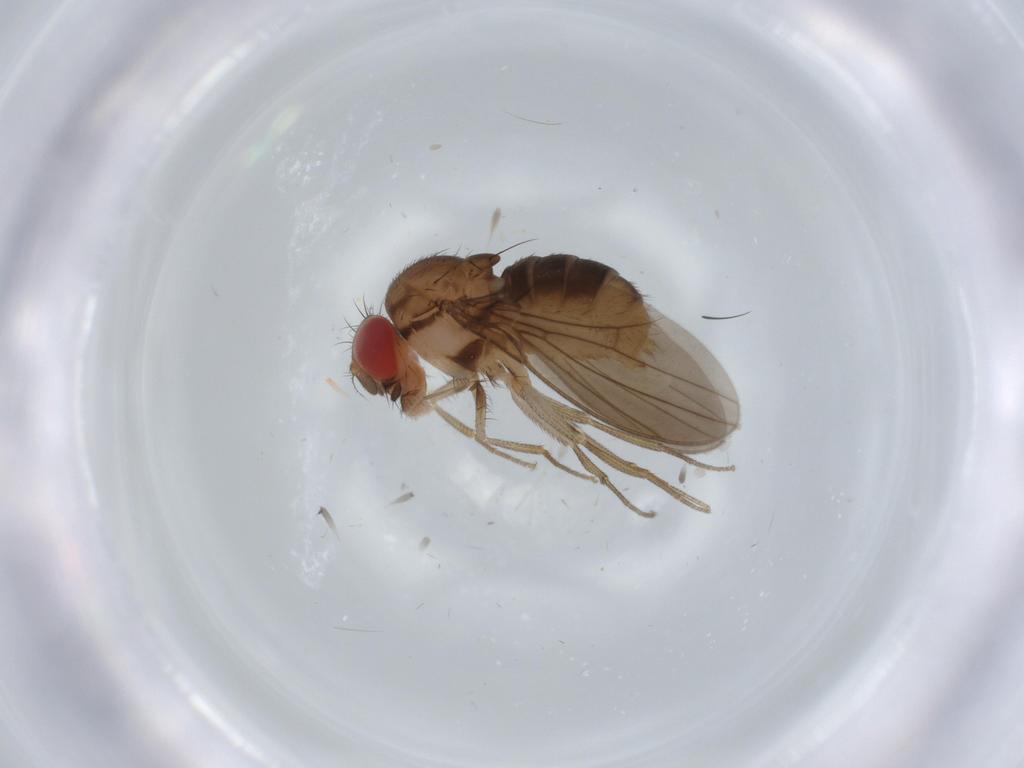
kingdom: Animalia
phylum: Arthropoda
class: Insecta
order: Diptera
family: Drosophilidae
